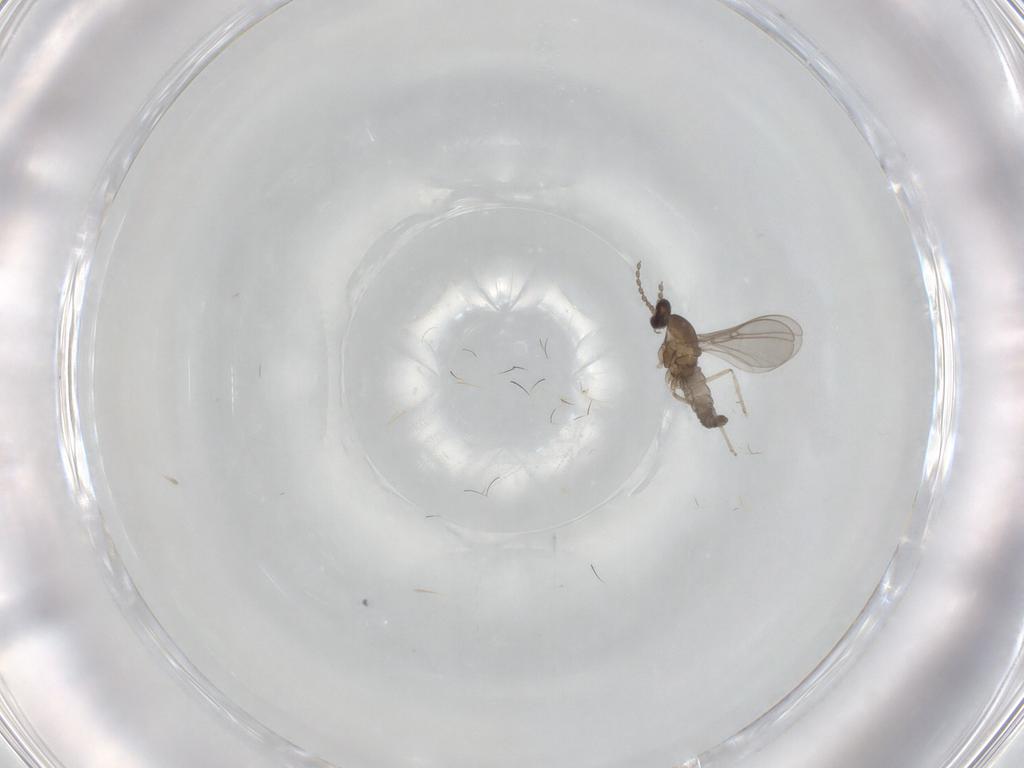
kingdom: Animalia
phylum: Arthropoda
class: Insecta
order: Diptera
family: Cecidomyiidae
